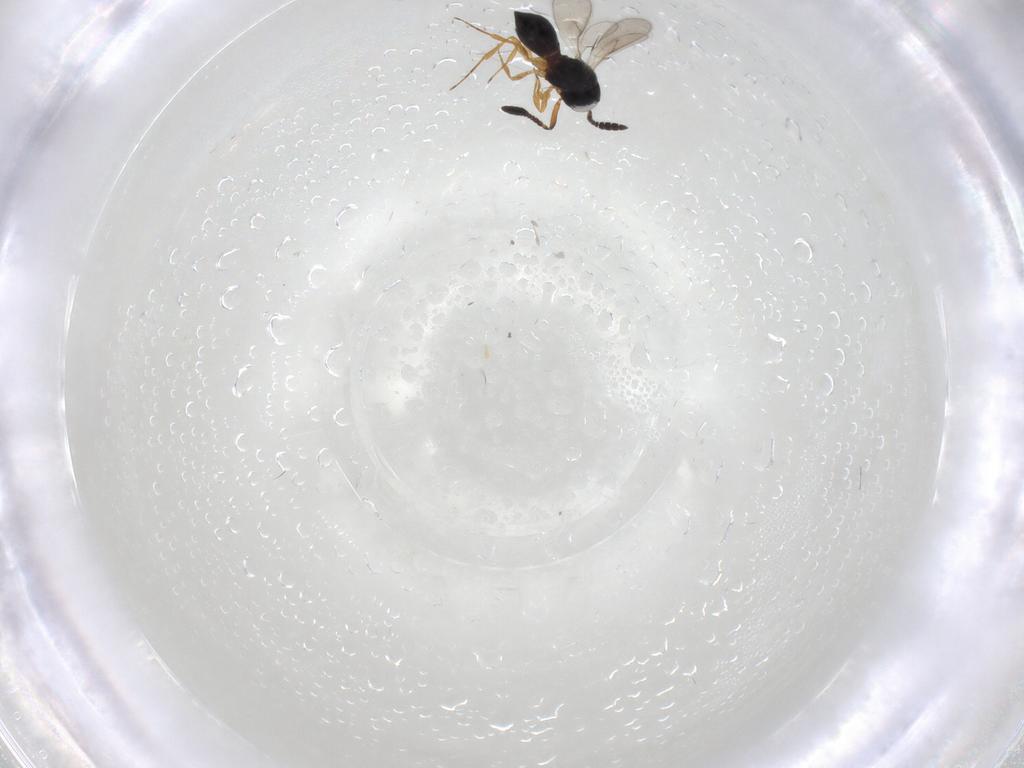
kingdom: Animalia
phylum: Arthropoda
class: Insecta
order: Hymenoptera
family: Scelionidae
